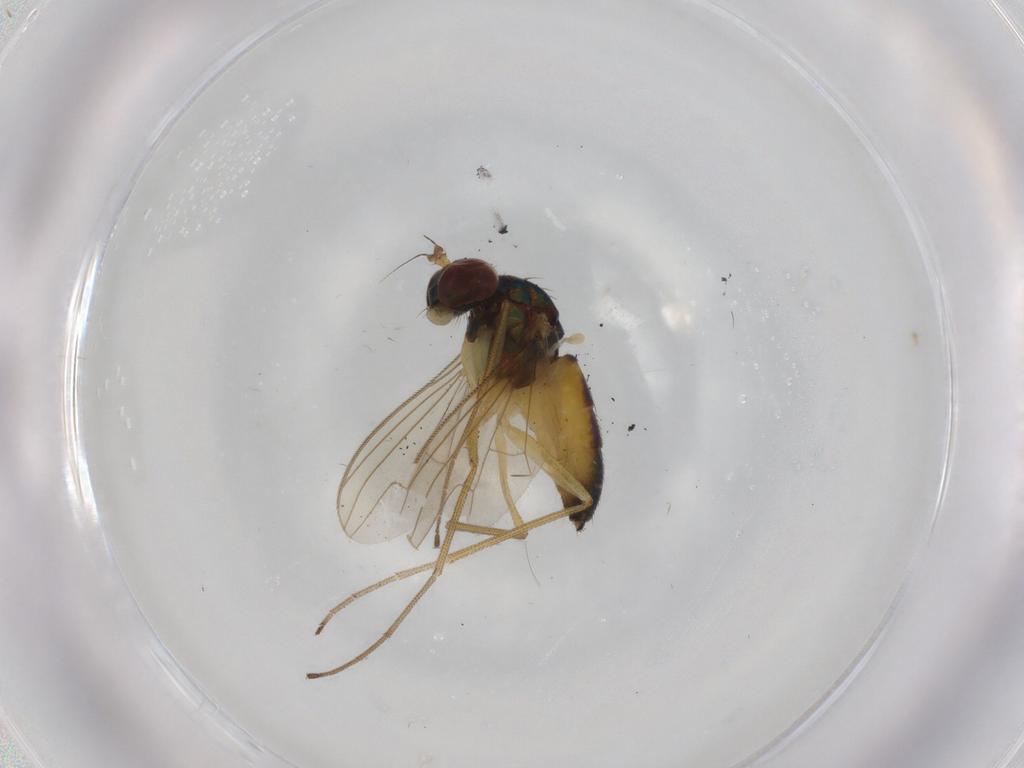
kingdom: Animalia
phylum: Arthropoda
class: Insecta
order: Diptera
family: Dolichopodidae
